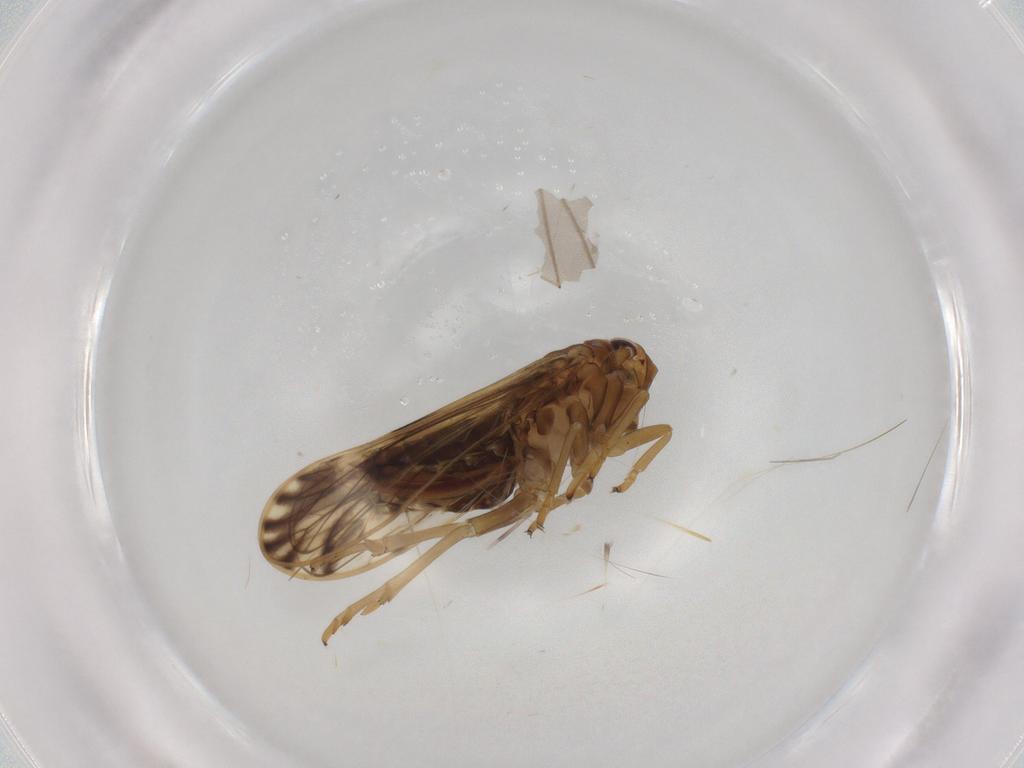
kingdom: Animalia
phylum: Arthropoda
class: Insecta
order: Hemiptera
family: Delphacidae
